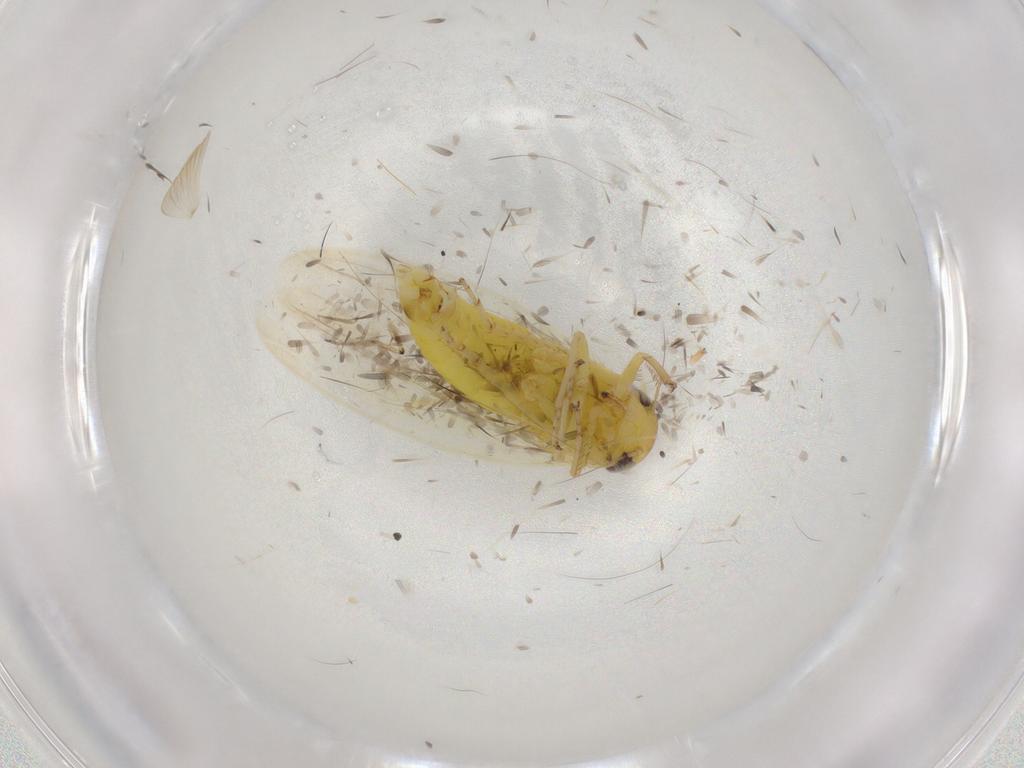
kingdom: Animalia
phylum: Arthropoda
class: Insecta
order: Hemiptera
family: Cicadellidae
